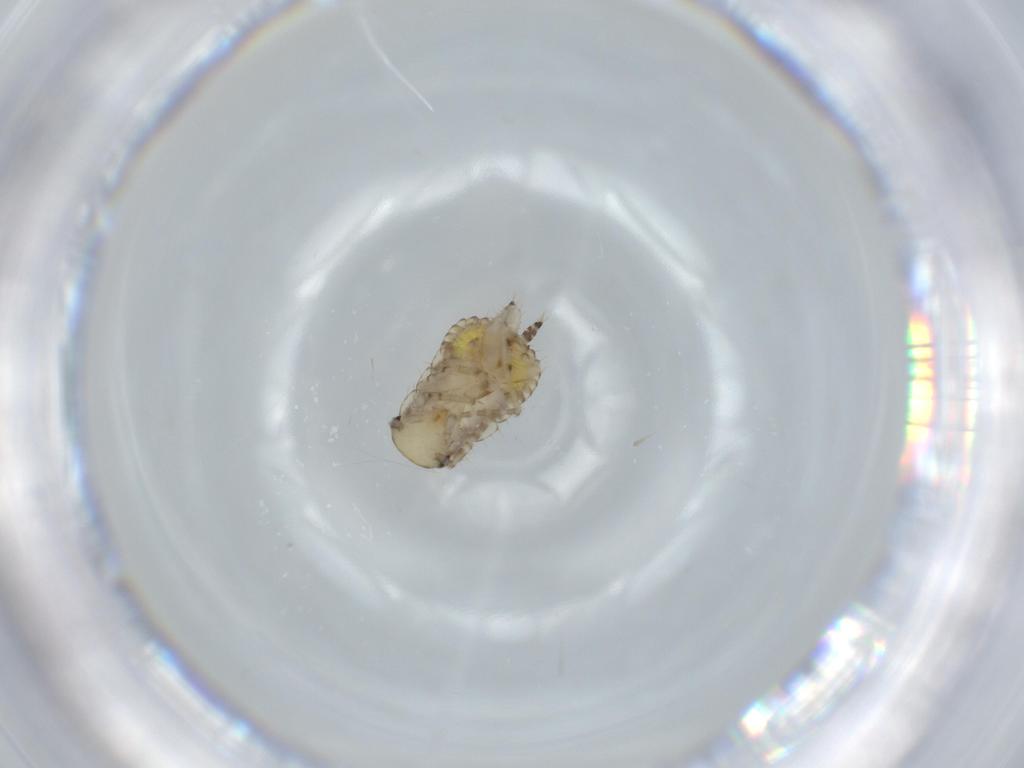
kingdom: Animalia
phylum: Arthropoda
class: Insecta
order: Blattodea
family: Ectobiidae
